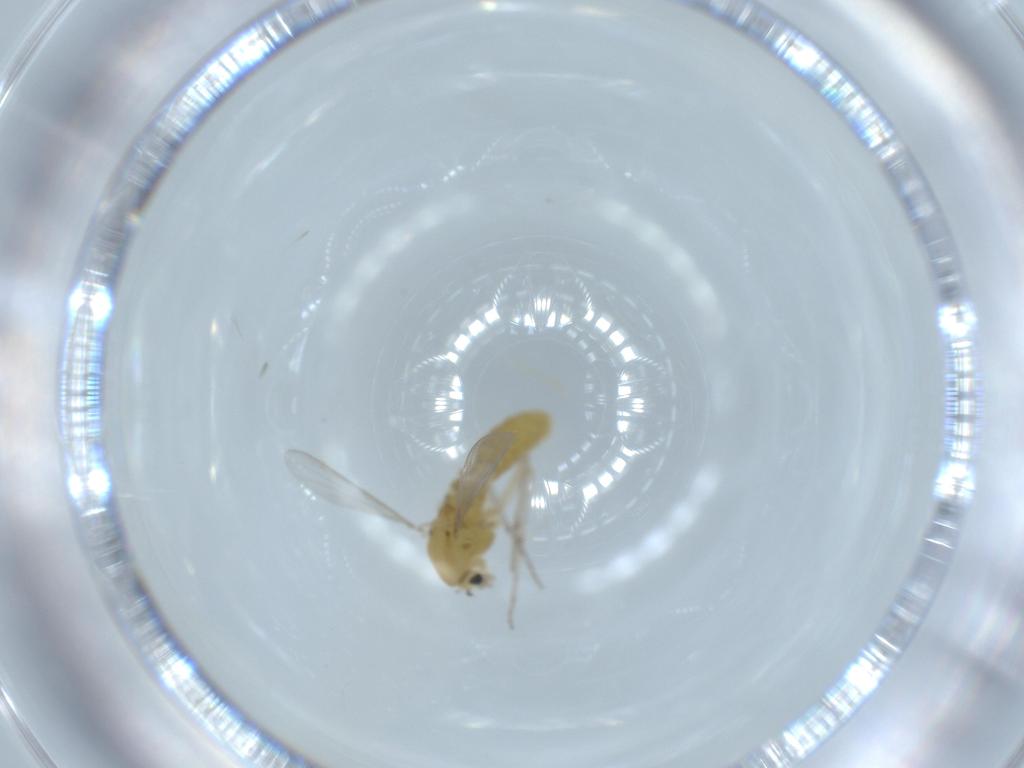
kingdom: Animalia
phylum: Arthropoda
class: Insecta
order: Diptera
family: Chironomidae
